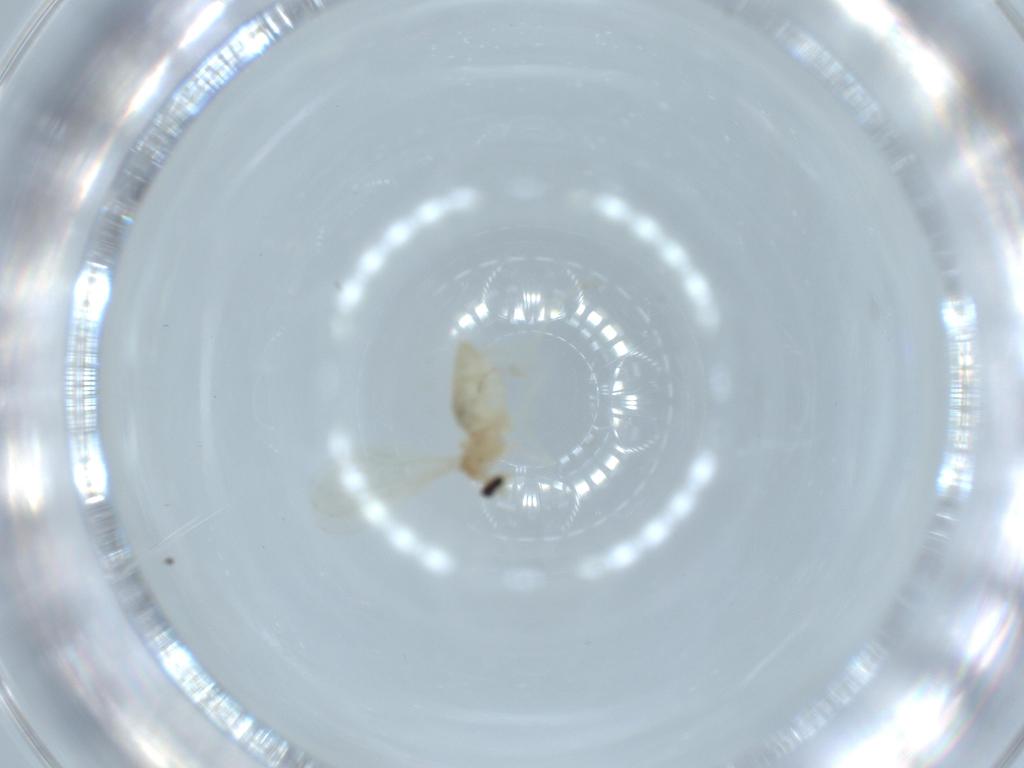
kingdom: Animalia
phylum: Arthropoda
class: Insecta
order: Diptera
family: Cecidomyiidae
